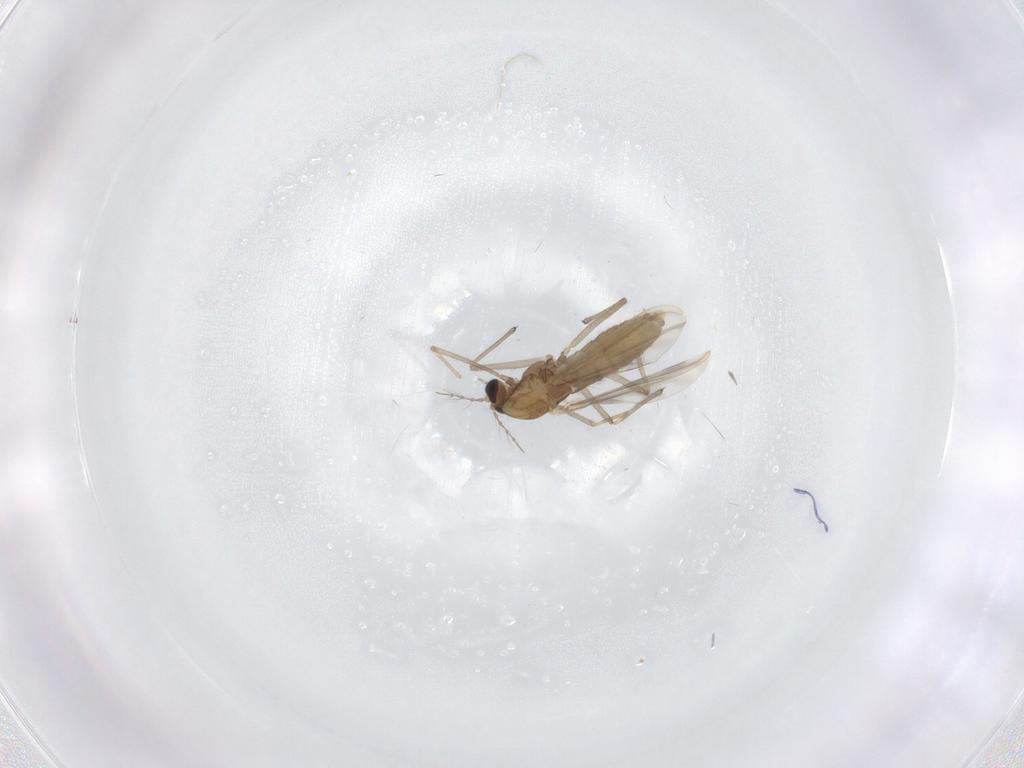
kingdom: Animalia
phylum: Arthropoda
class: Insecta
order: Diptera
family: Chironomidae
